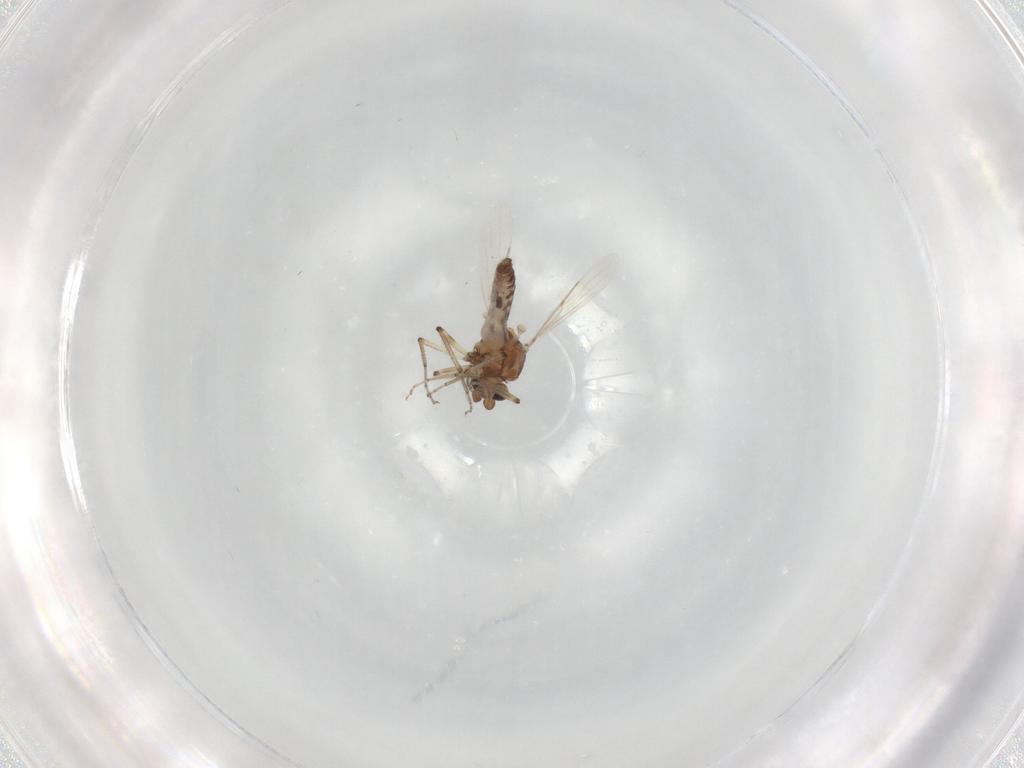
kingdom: Animalia
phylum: Arthropoda
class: Insecta
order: Diptera
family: Ceratopogonidae
